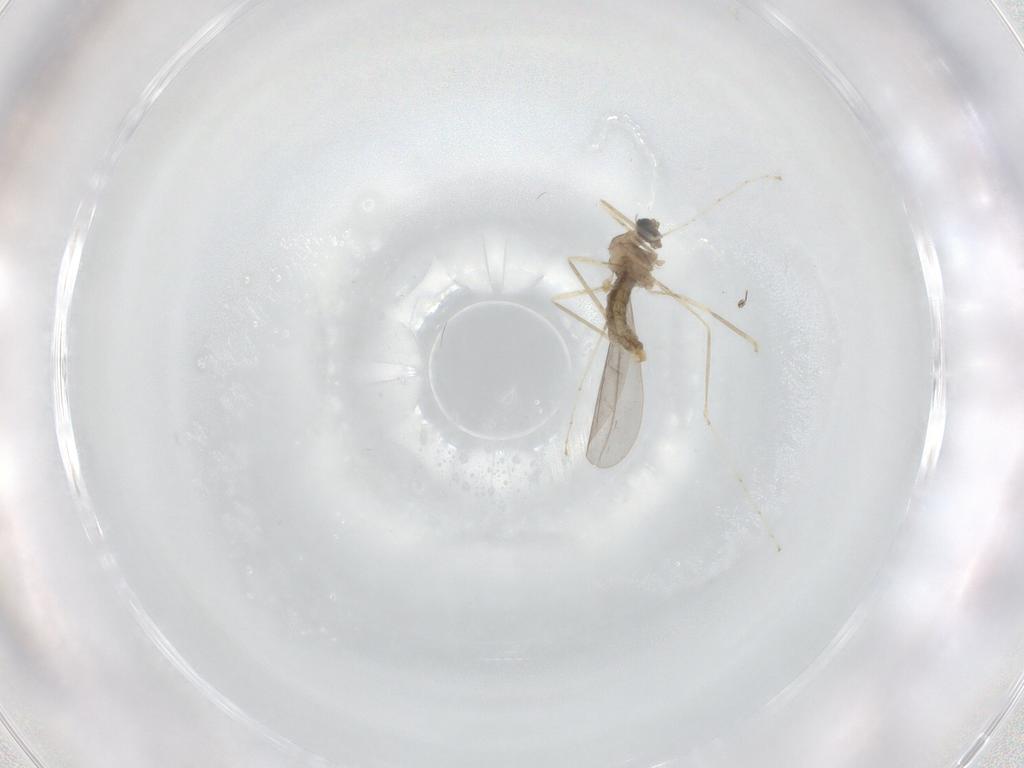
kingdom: Animalia
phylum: Arthropoda
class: Insecta
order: Diptera
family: Cecidomyiidae
